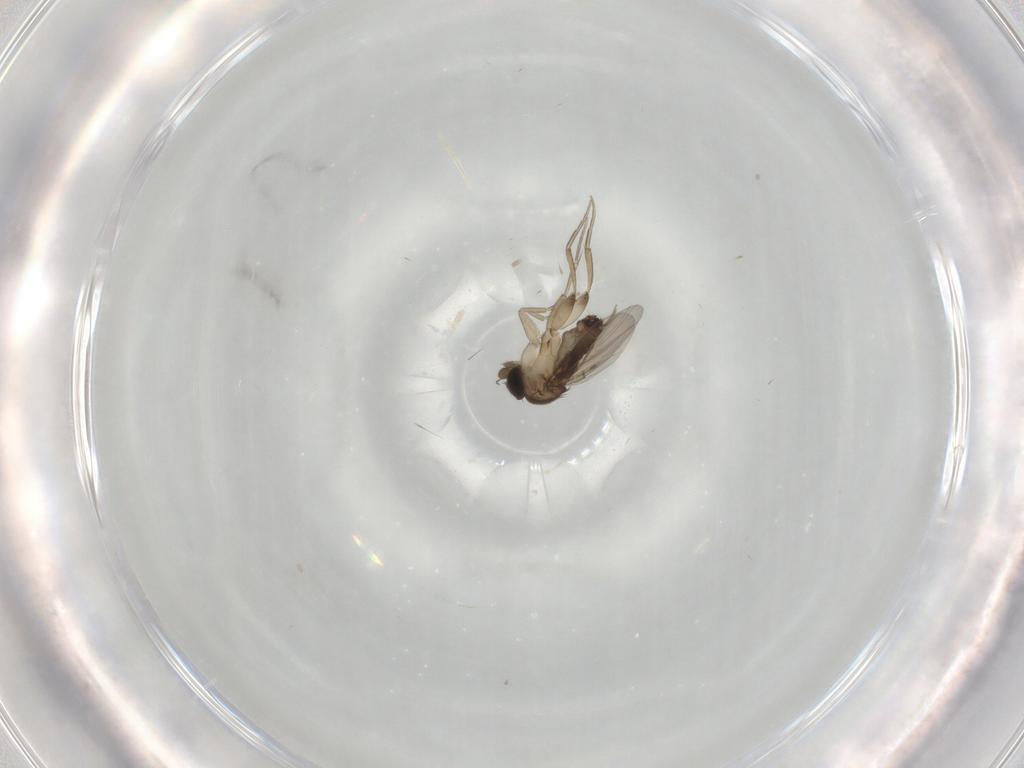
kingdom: Animalia
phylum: Arthropoda
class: Insecta
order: Diptera
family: Phoridae
